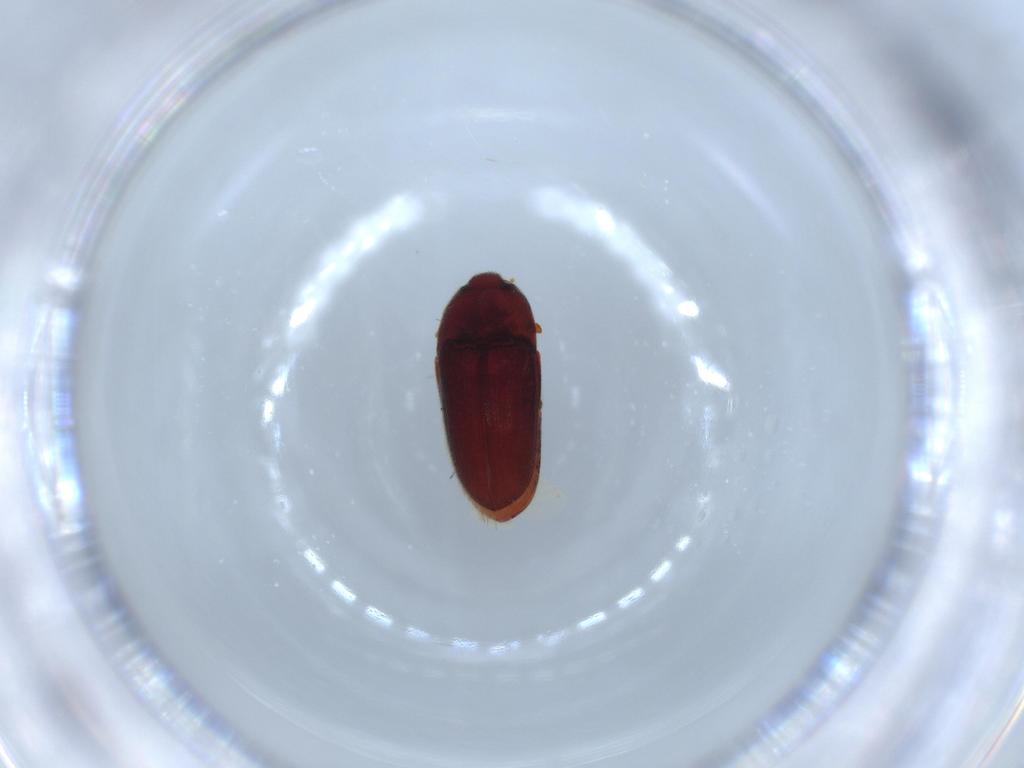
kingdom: Animalia
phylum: Arthropoda
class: Insecta
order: Coleoptera
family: Throscidae
